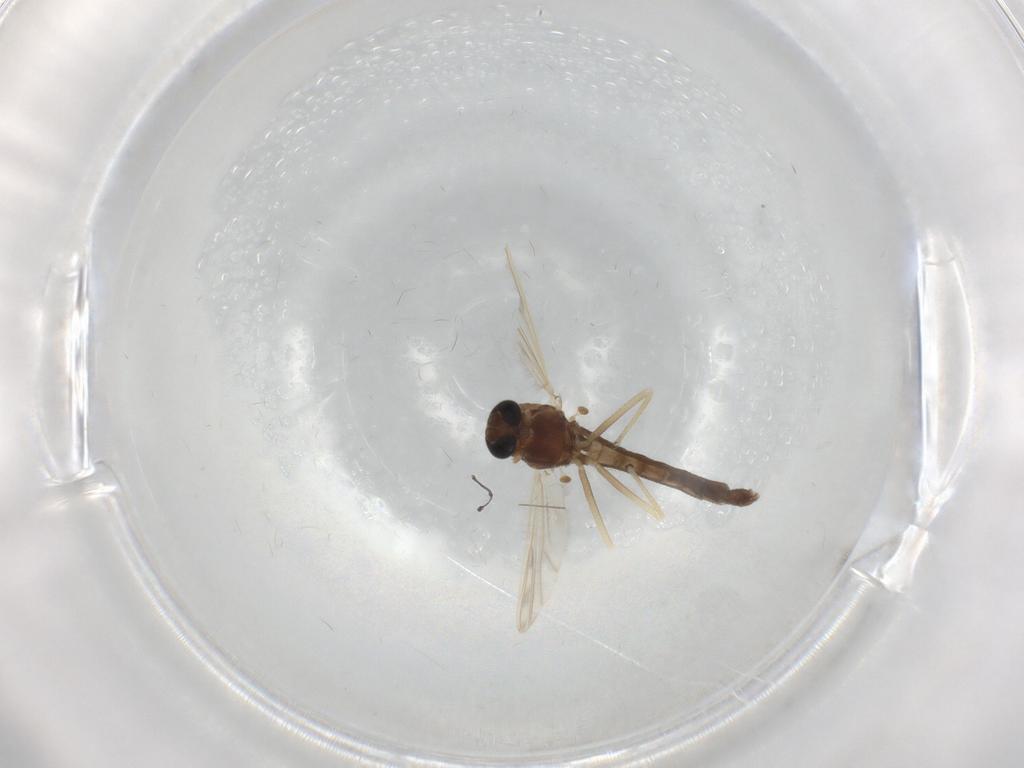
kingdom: Animalia
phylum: Arthropoda
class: Insecta
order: Diptera
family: Chironomidae
